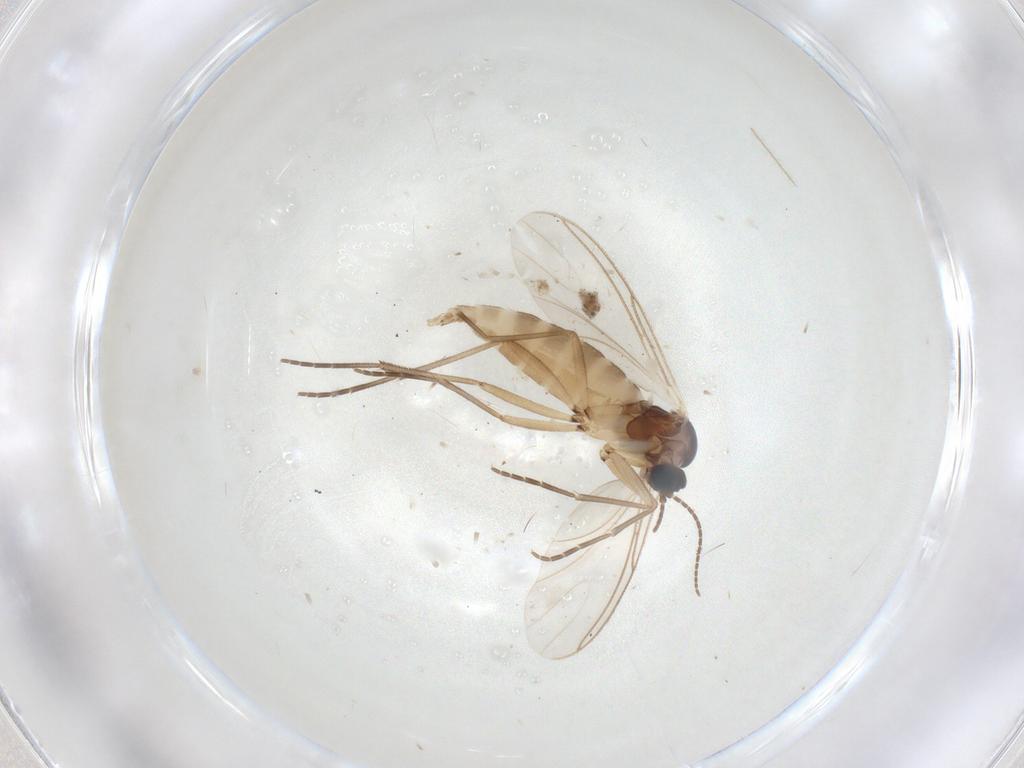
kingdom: Animalia
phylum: Arthropoda
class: Insecta
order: Diptera
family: Sciaridae
